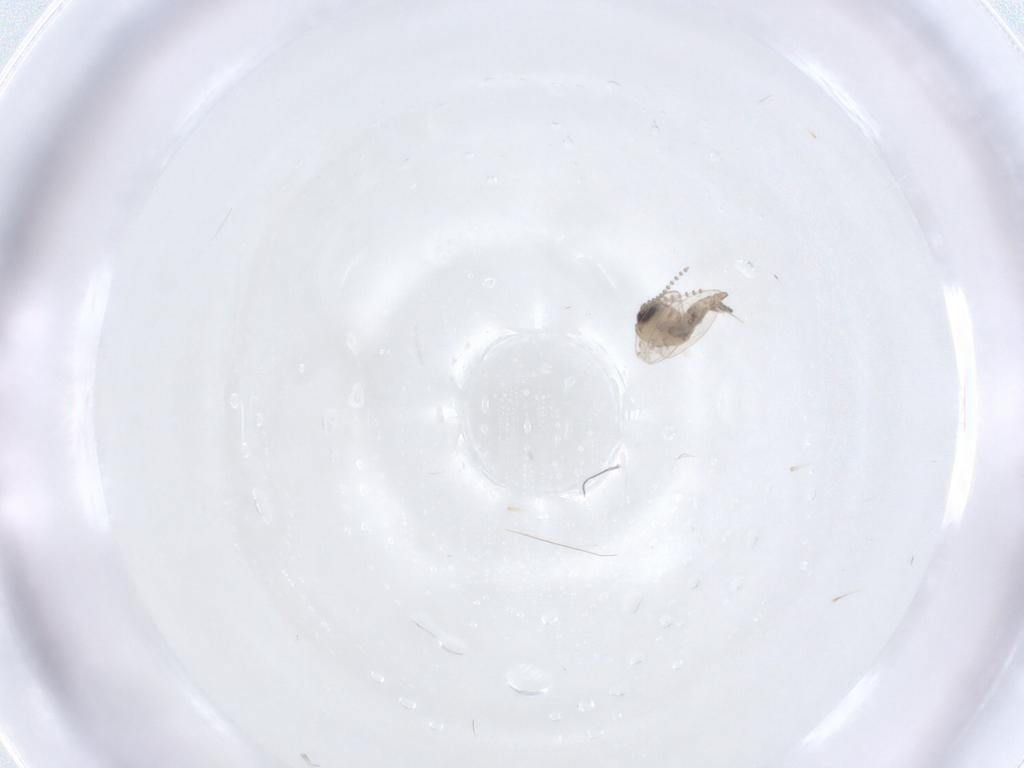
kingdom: Animalia
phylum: Arthropoda
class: Insecta
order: Diptera
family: Psychodidae
